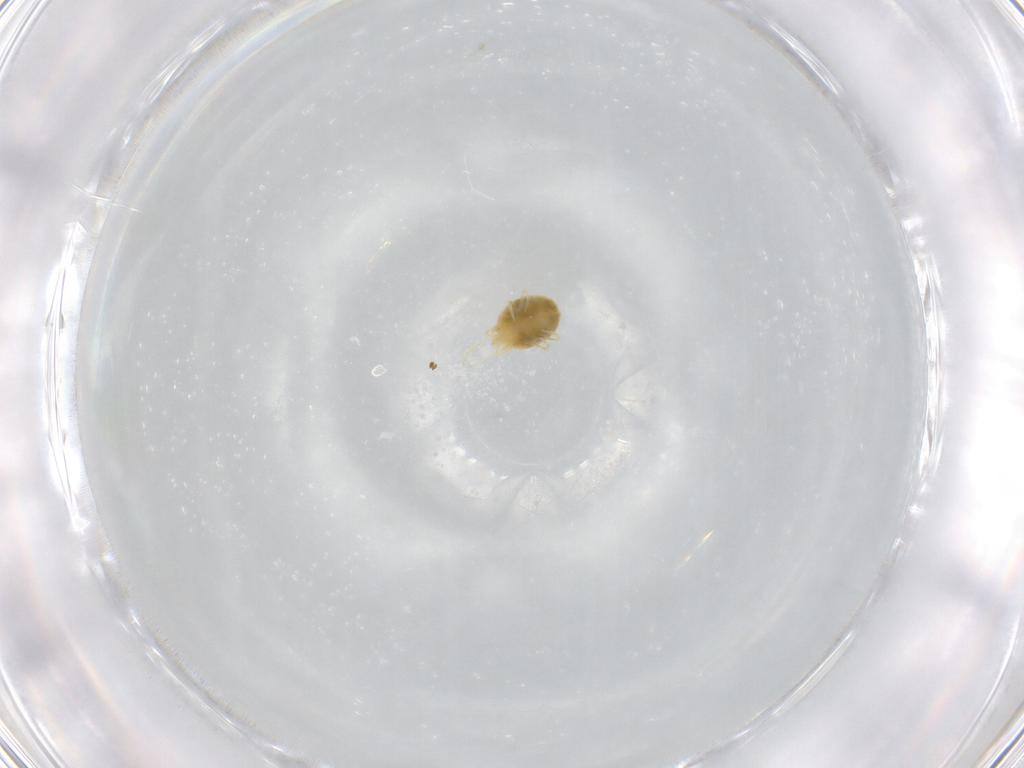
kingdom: Animalia
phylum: Arthropoda
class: Arachnida
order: Trombidiformes
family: Tetranychidae
